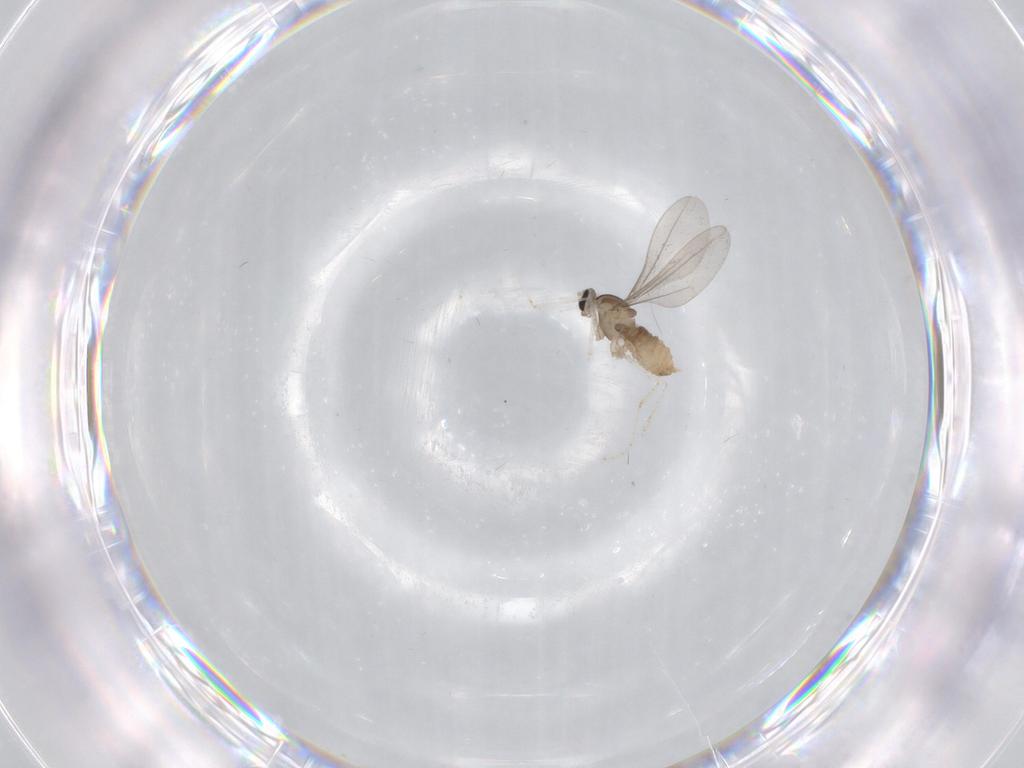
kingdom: Animalia
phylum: Arthropoda
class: Insecta
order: Diptera
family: Cecidomyiidae
